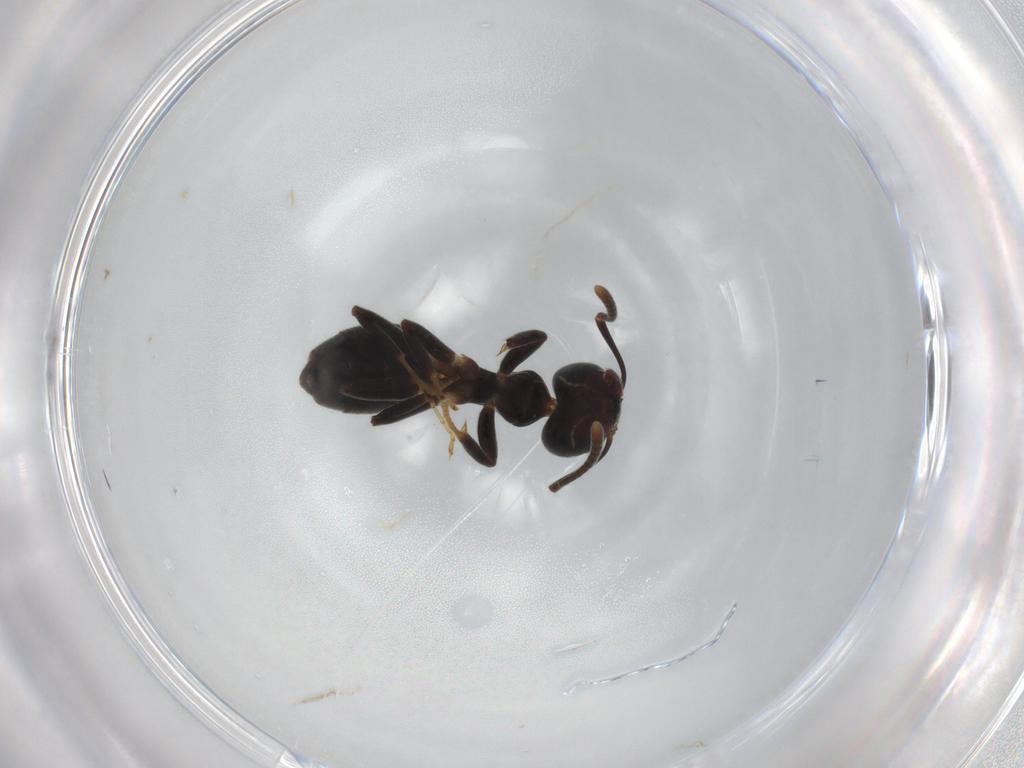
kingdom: Animalia
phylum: Arthropoda
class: Insecta
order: Hymenoptera
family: Formicidae
